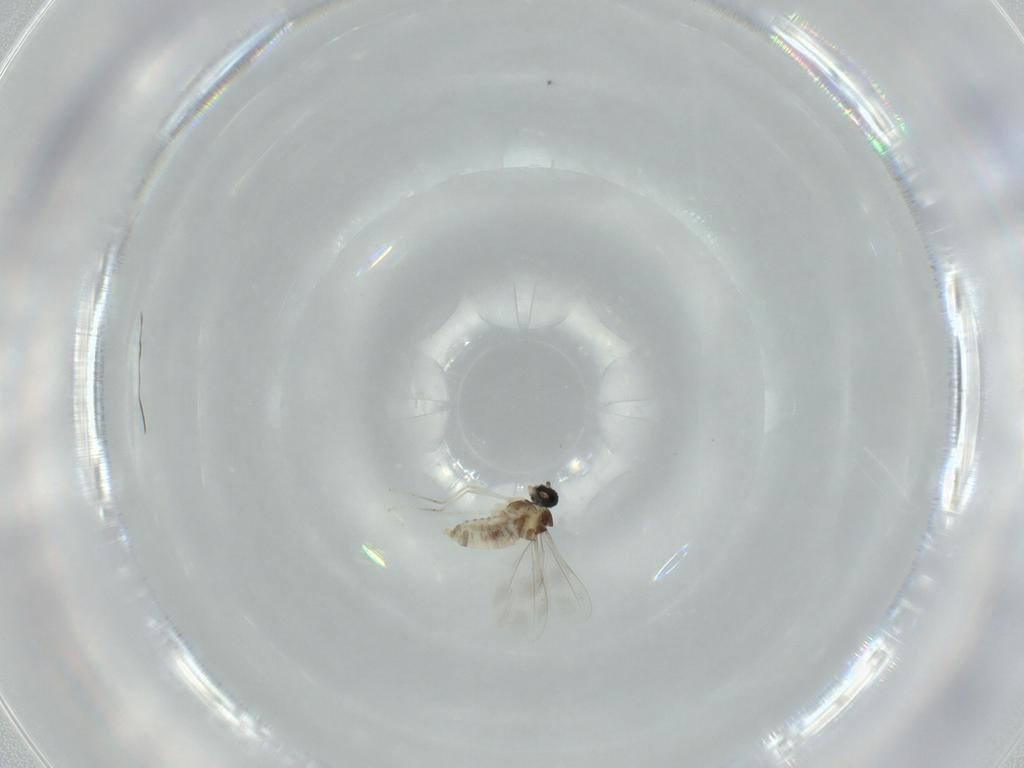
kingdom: Animalia
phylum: Arthropoda
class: Insecta
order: Diptera
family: Cecidomyiidae
